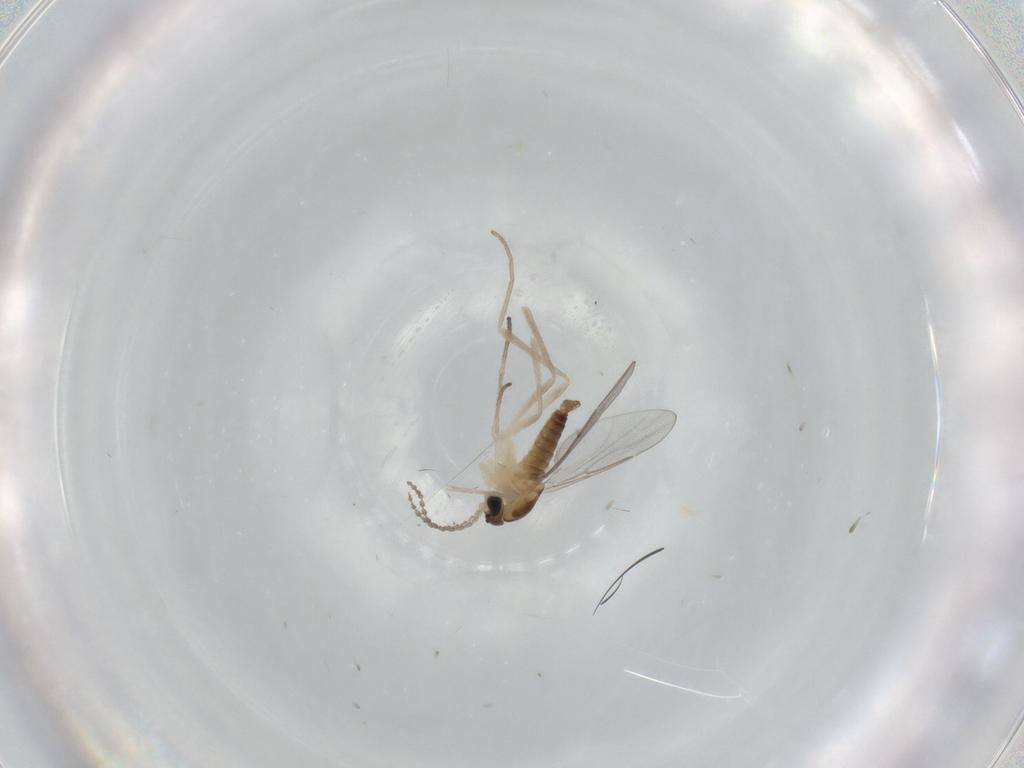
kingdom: Animalia
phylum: Arthropoda
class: Insecta
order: Diptera
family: Cecidomyiidae
